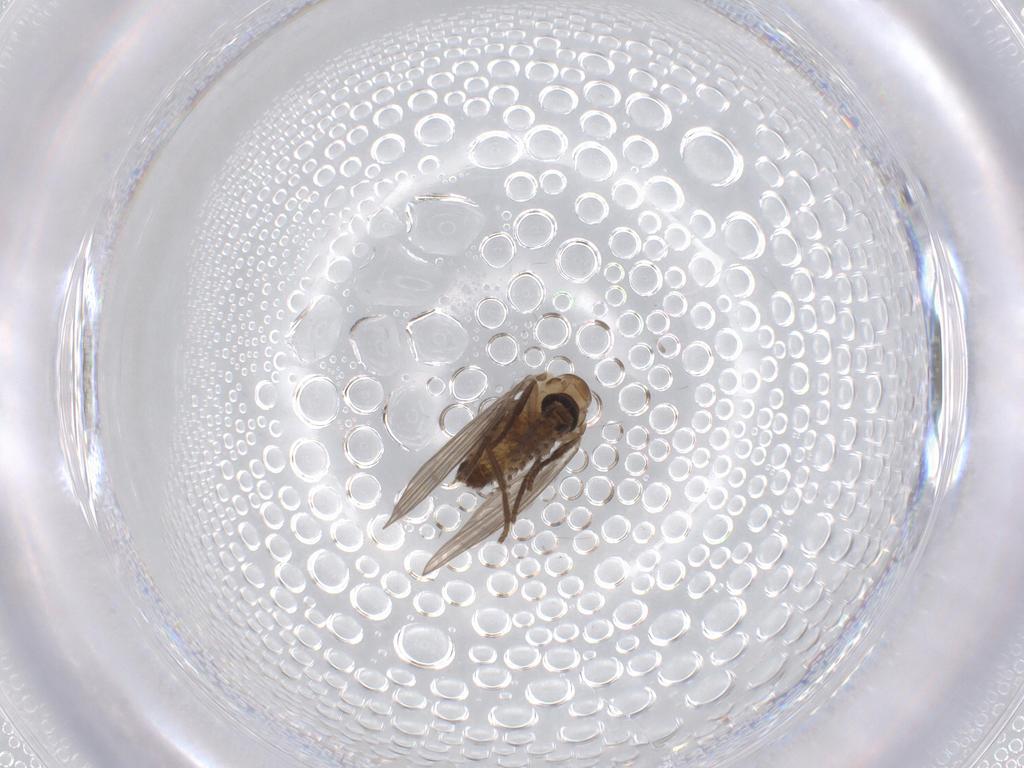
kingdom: Animalia
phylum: Arthropoda
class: Insecta
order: Diptera
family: Psychodidae
